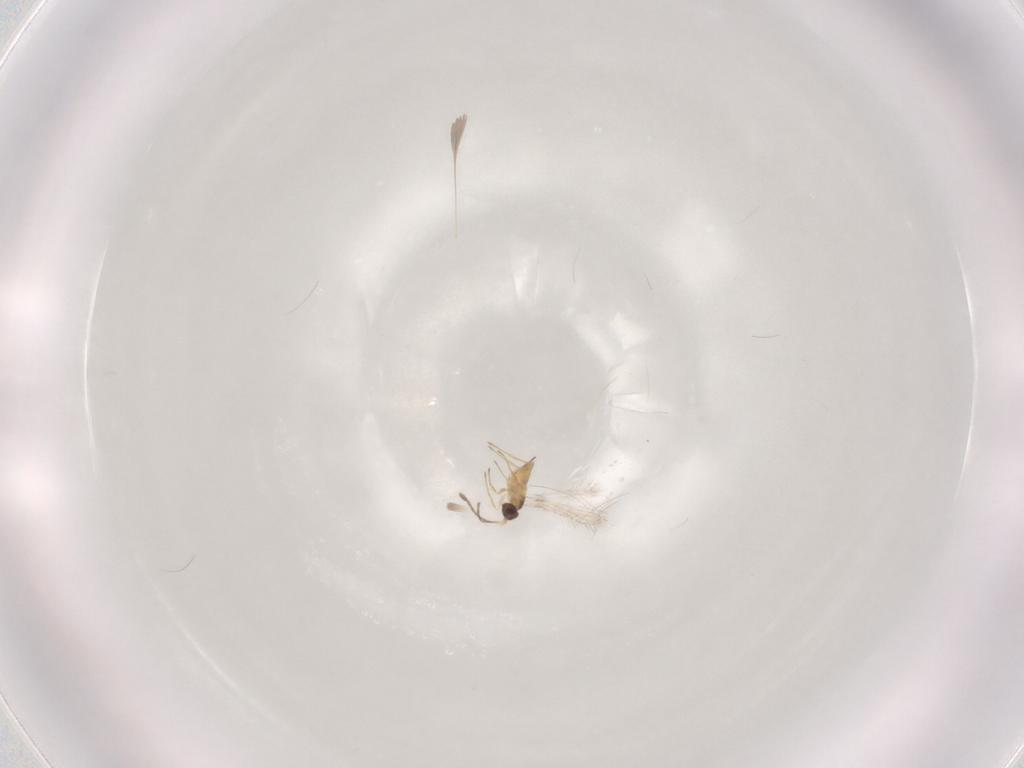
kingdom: Animalia
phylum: Arthropoda
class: Insecta
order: Hymenoptera
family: Mymaridae
